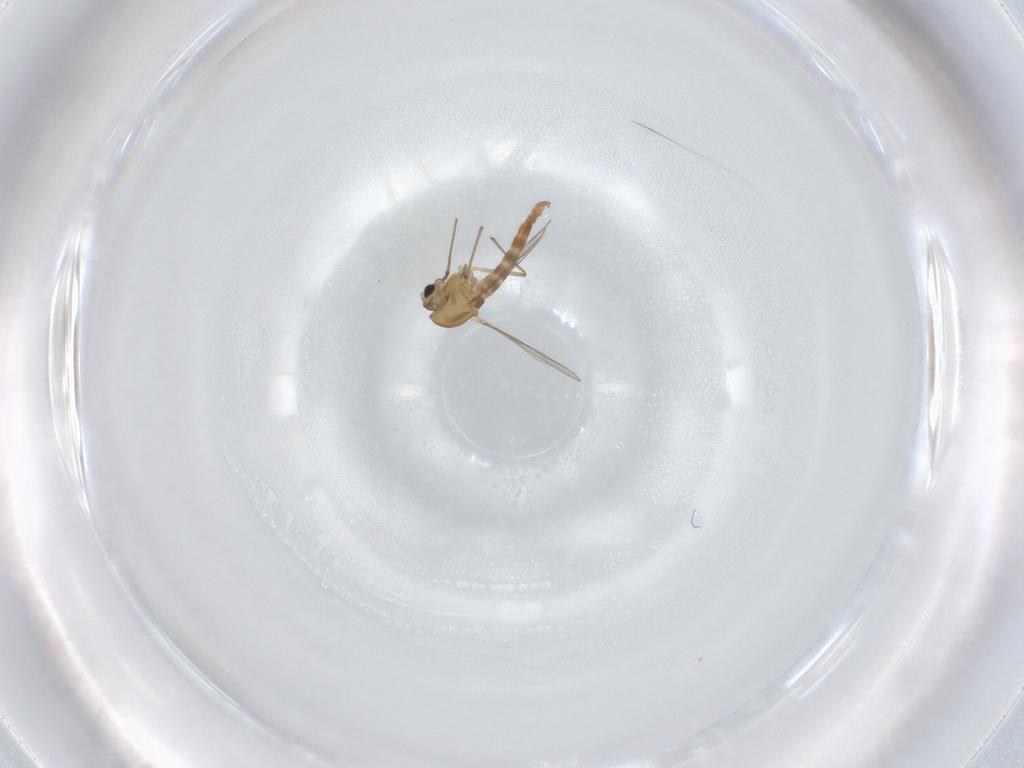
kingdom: Animalia
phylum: Arthropoda
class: Insecta
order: Diptera
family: Chironomidae
